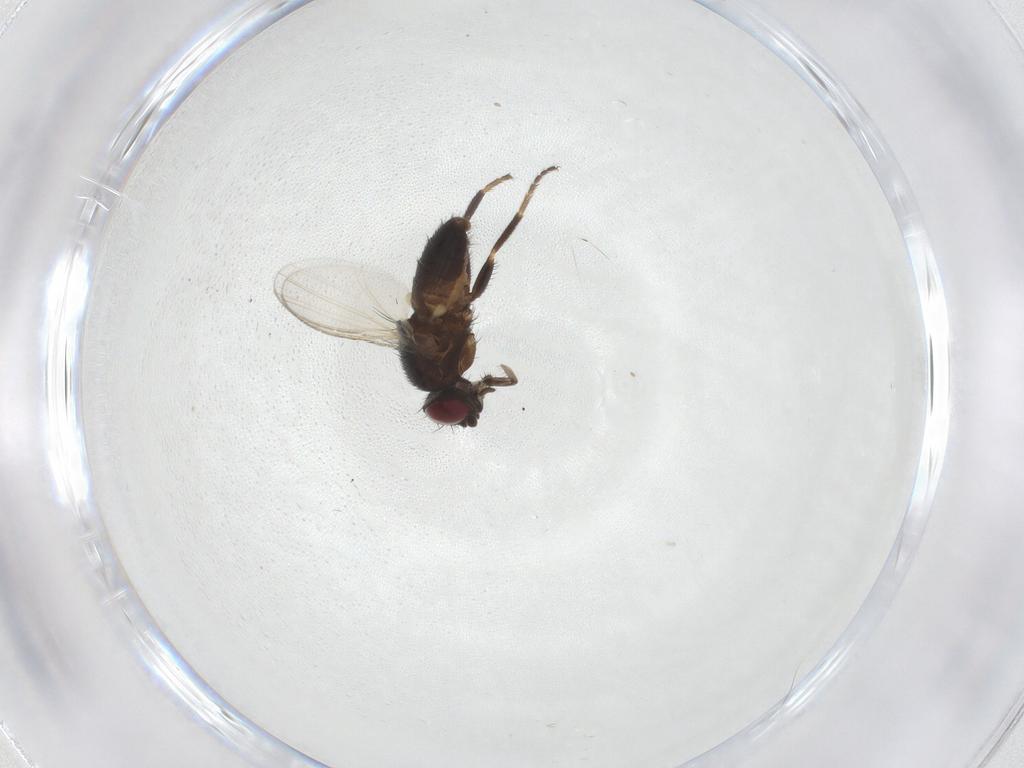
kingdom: Animalia
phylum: Arthropoda
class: Insecta
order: Diptera
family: Milichiidae
